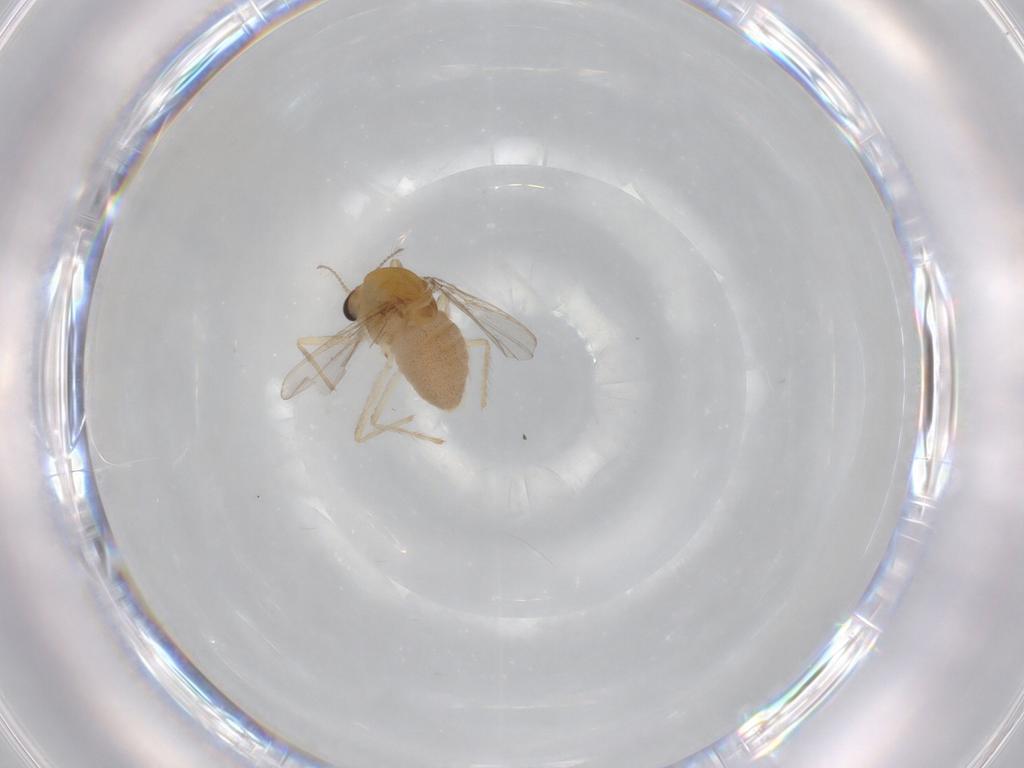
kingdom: Animalia
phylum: Arthropoda
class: Insecta
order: Diptera
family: Chironomidae
